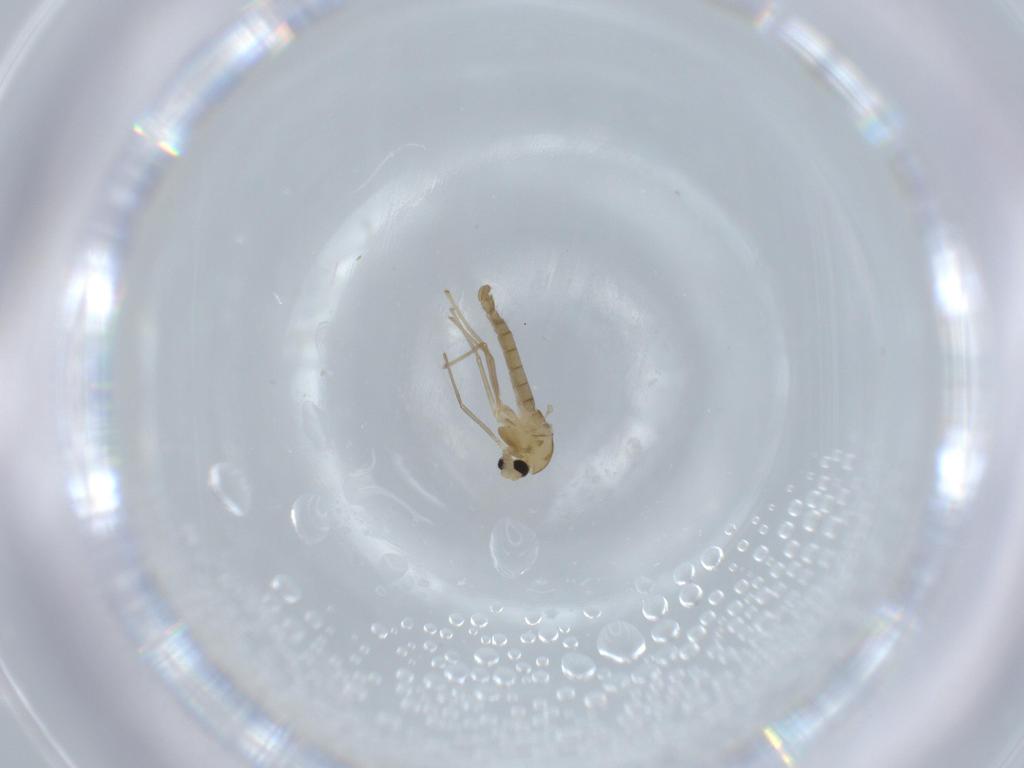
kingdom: Animalia
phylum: Arthropoda
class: Insecta
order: Diptera
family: Chironomidae
